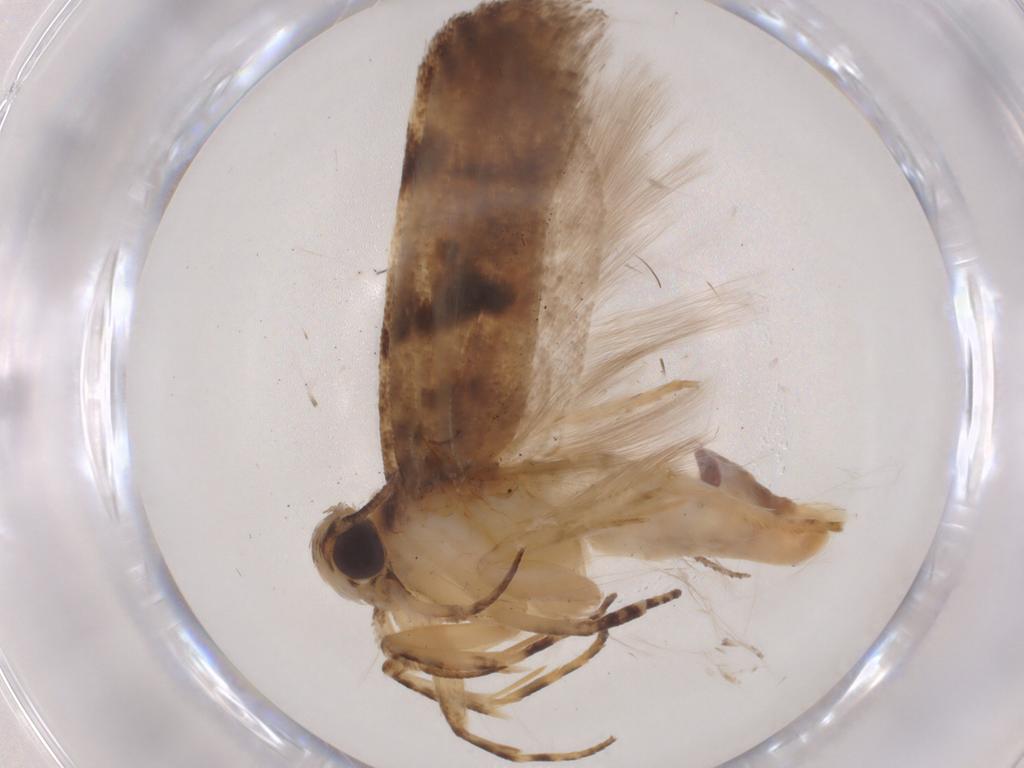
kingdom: Animalia
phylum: Arthropoda
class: Insecta
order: Lepidoptera
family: Gelechiidae
